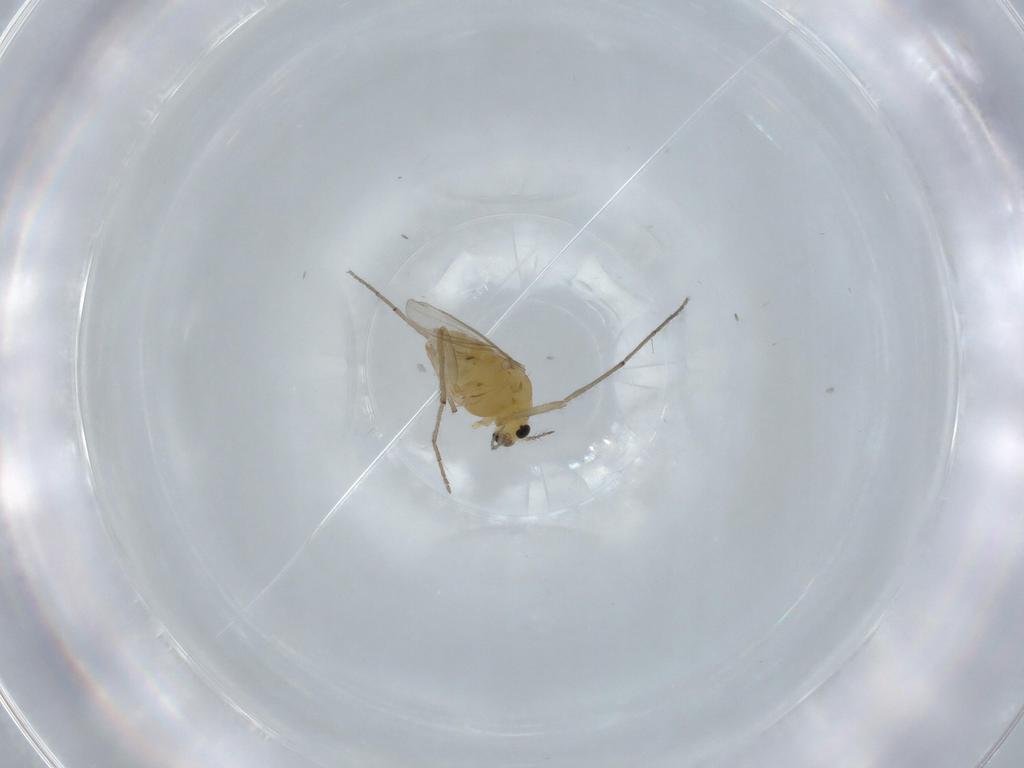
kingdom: Animalia
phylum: Arthropoda
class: Insecta
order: Diptera
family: Chironomidae
